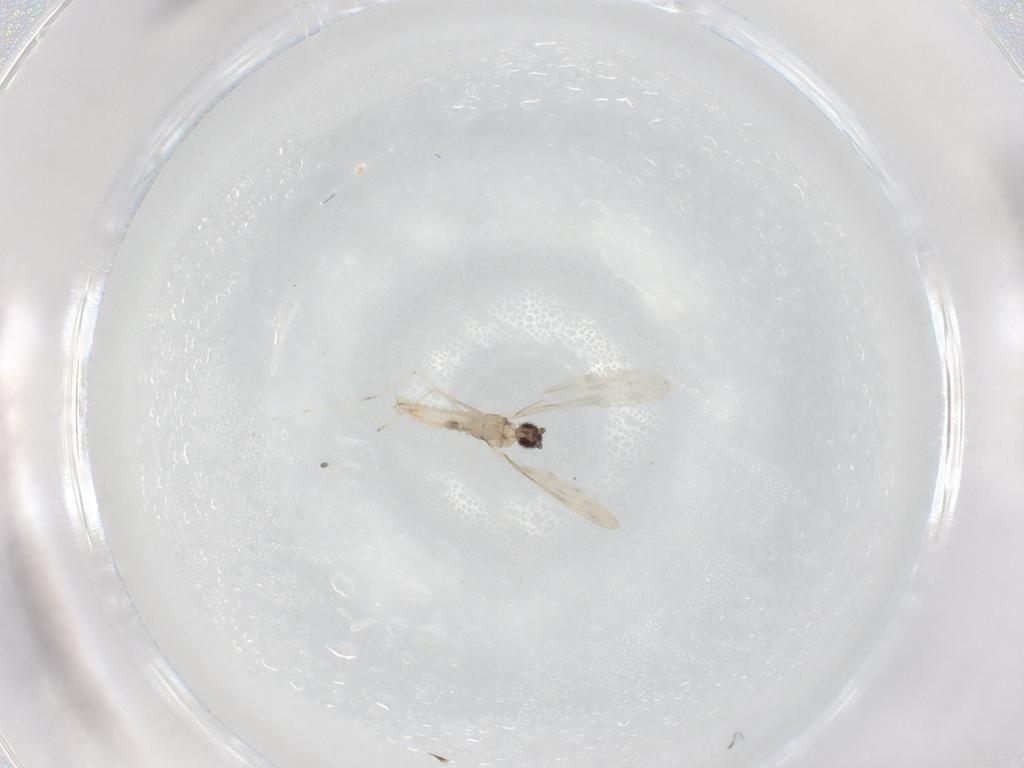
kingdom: Animalia
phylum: Arthropoda
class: Insecta
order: Diptera
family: Cecidomyiidae
